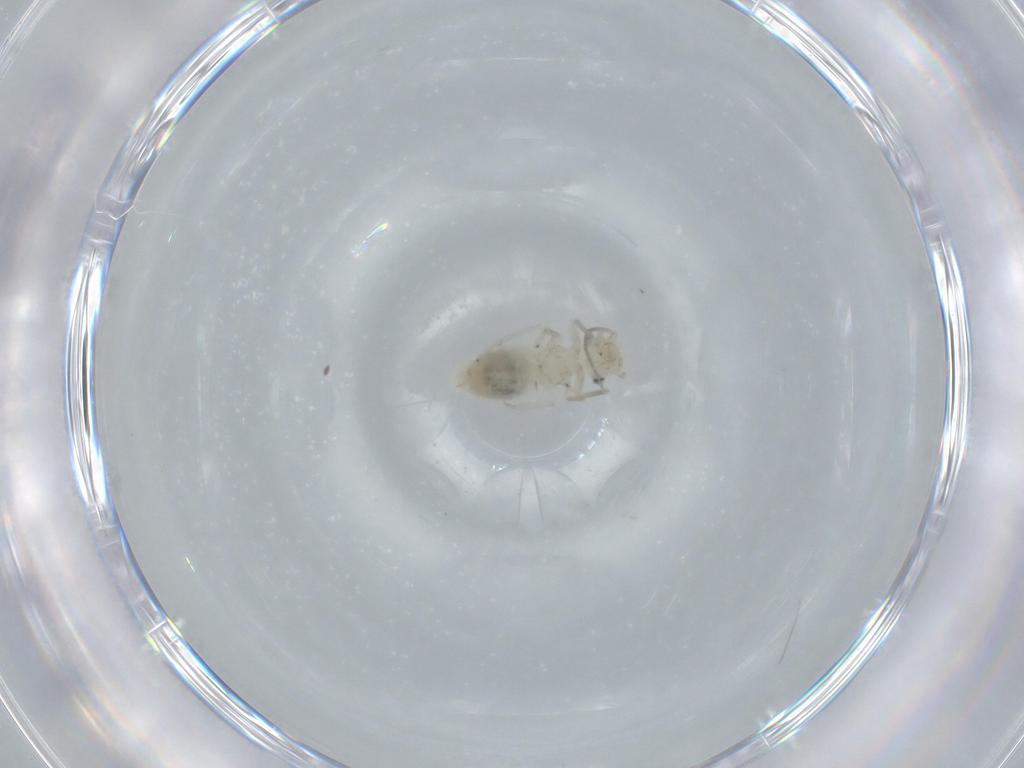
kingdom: Animalia
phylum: Arthropoda
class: Insecta
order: Psocodea
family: Caeciliusidae
